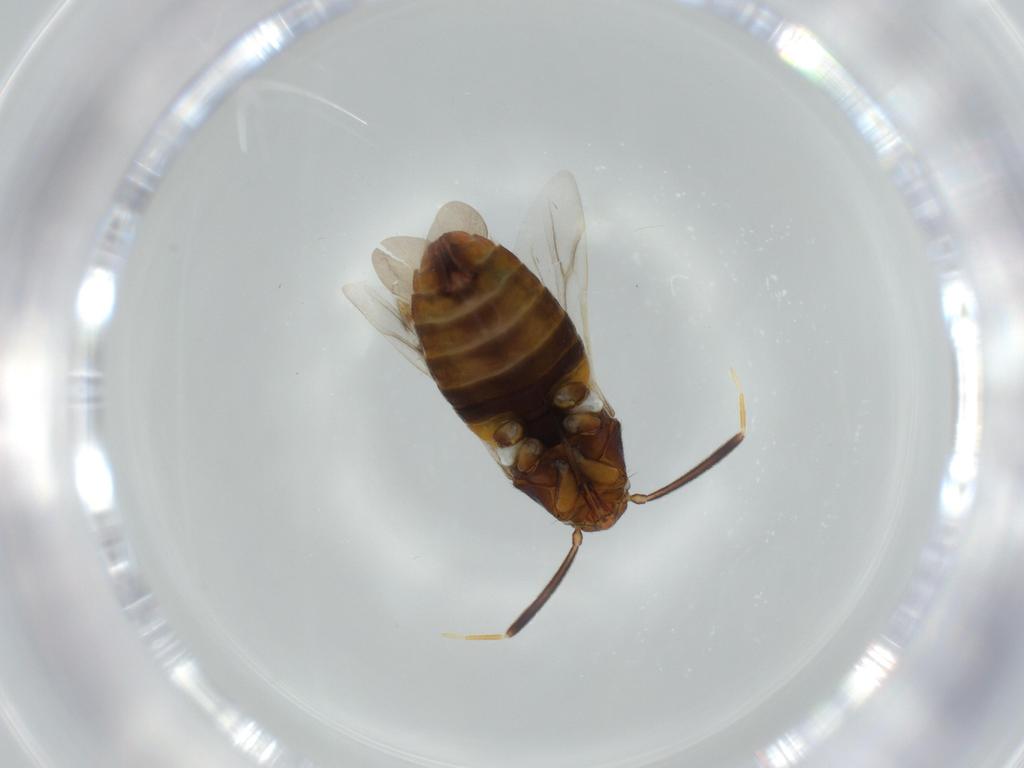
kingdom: Animalia
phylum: Arthropoda
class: Insecta
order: Hemiptera
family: Miridae
